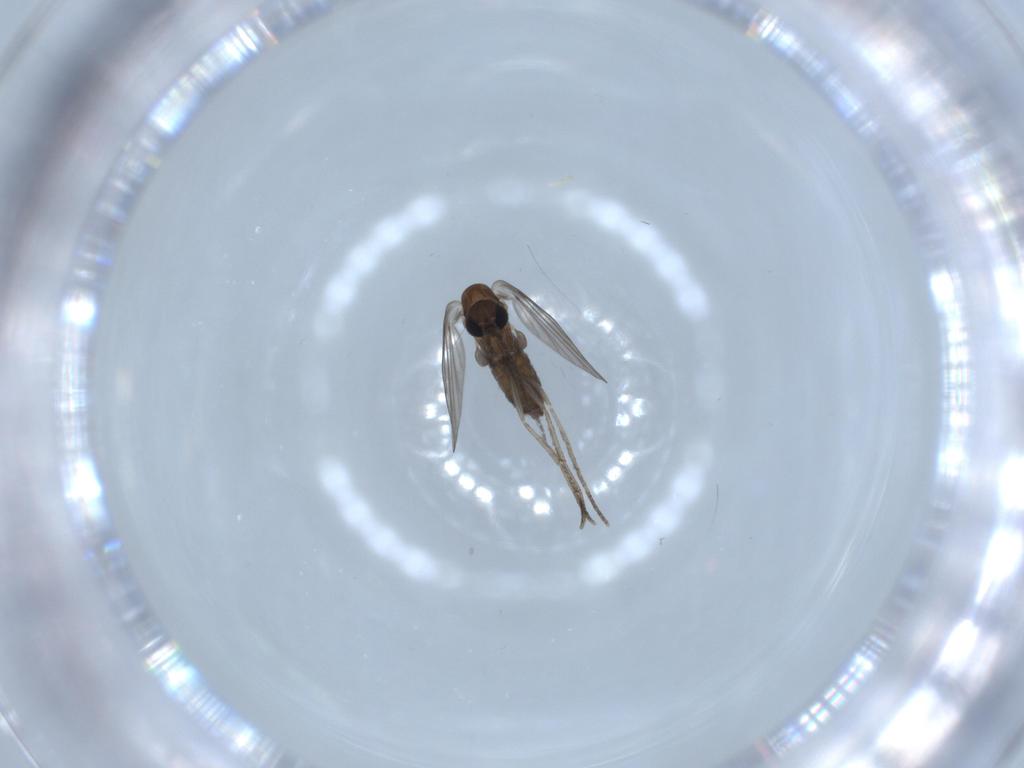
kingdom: Animalia
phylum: Arthropoda
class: Insecta
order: Diptera
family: Psychodidae
